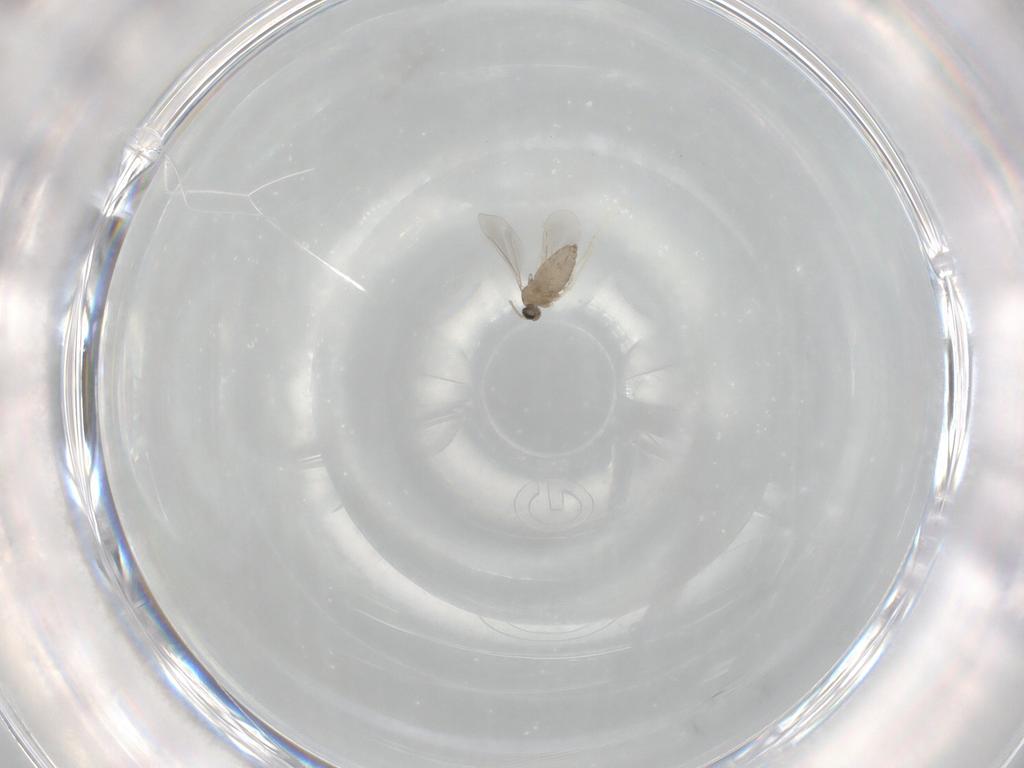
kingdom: Animalia
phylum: Arthropoda
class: Insecta
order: Diptera
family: Cecidomyiidae
